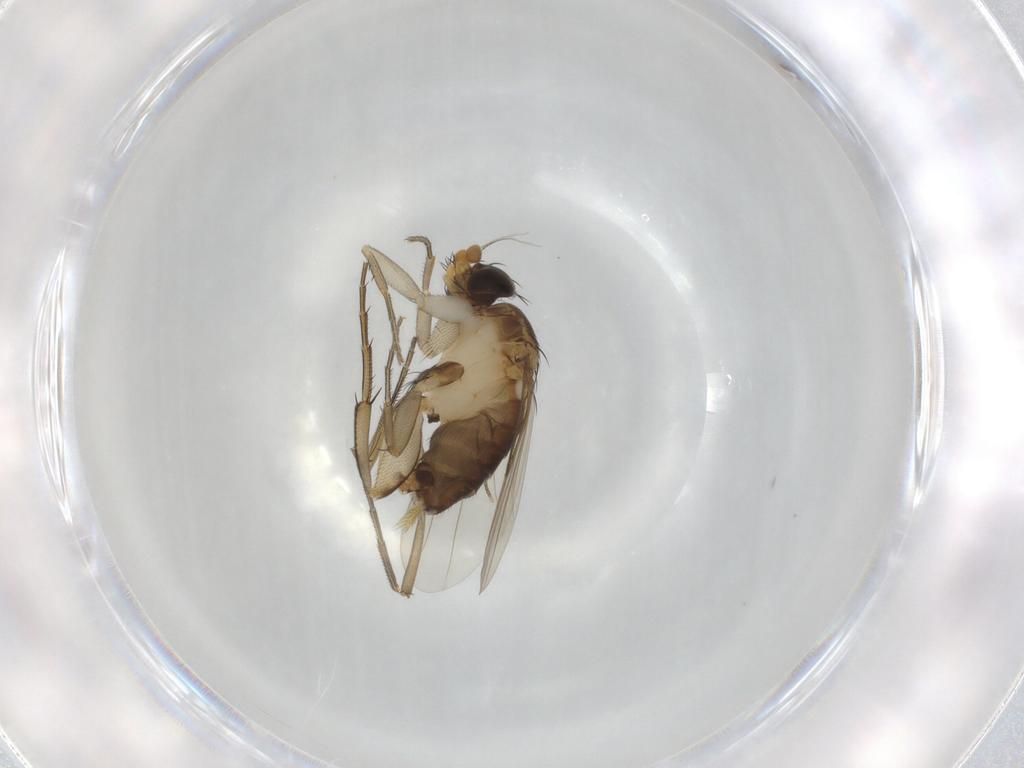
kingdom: Animalia
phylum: Arthropoda
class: Insecta
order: Diptera
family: Phoridae
